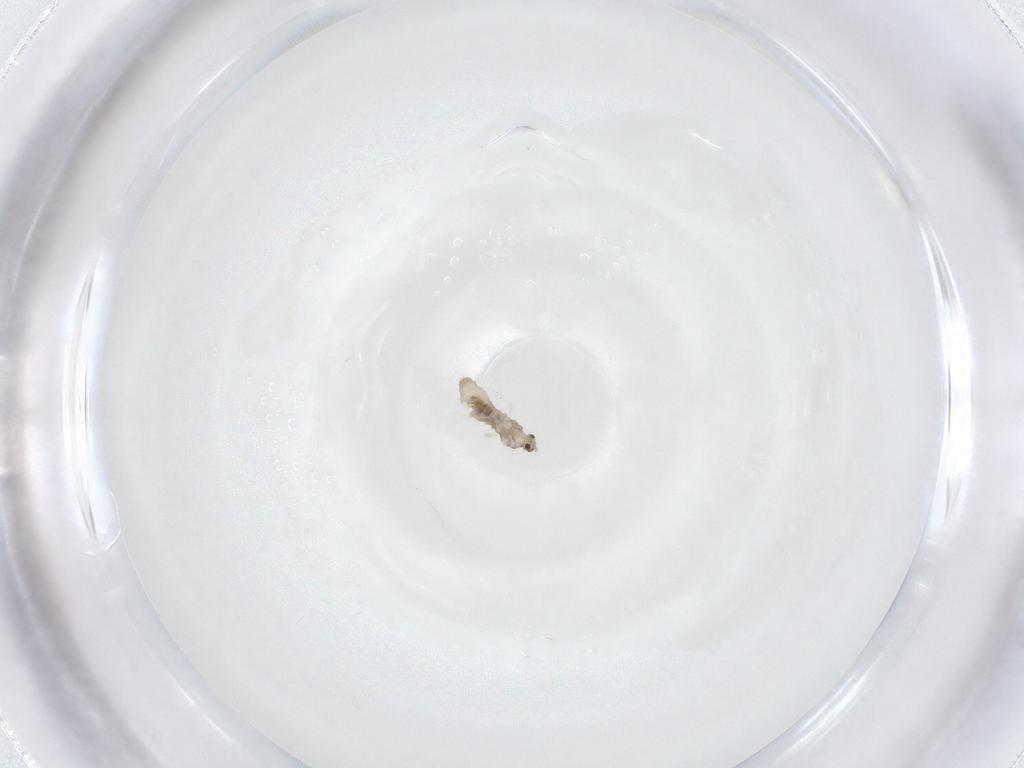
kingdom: Animalia
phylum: Arthropoda
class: Insecta
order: Diptera
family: Cecidomyiidae
